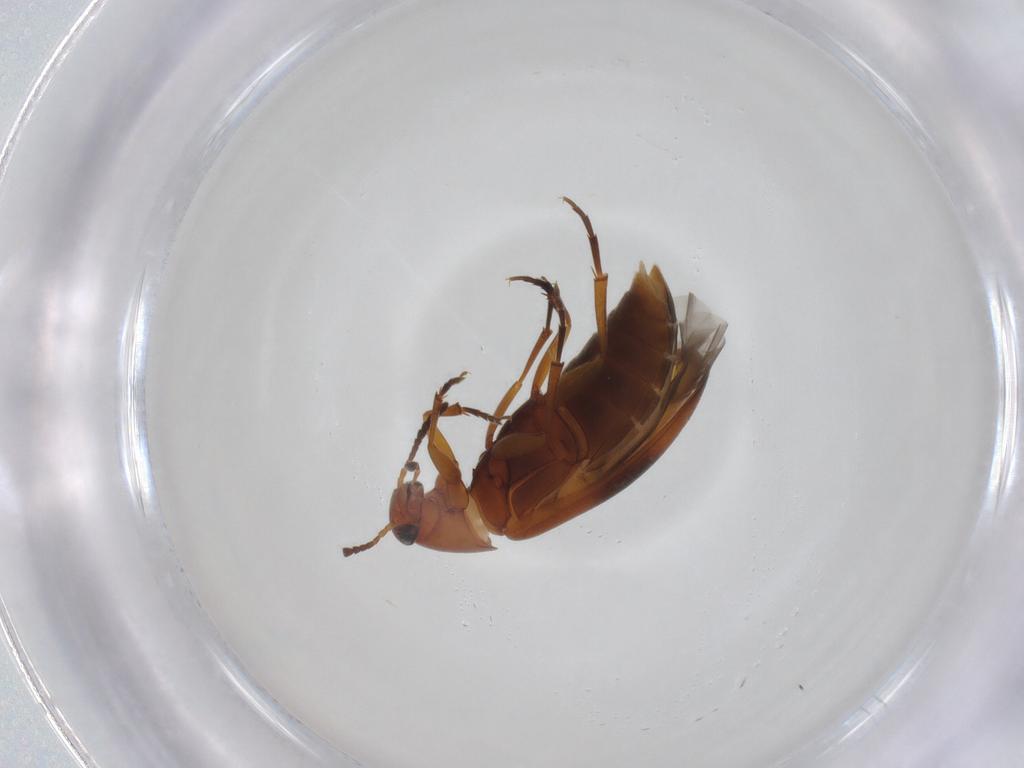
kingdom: Animalia
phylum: Arthropoda
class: Insecta
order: Coleoptera
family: Scraptiidae
